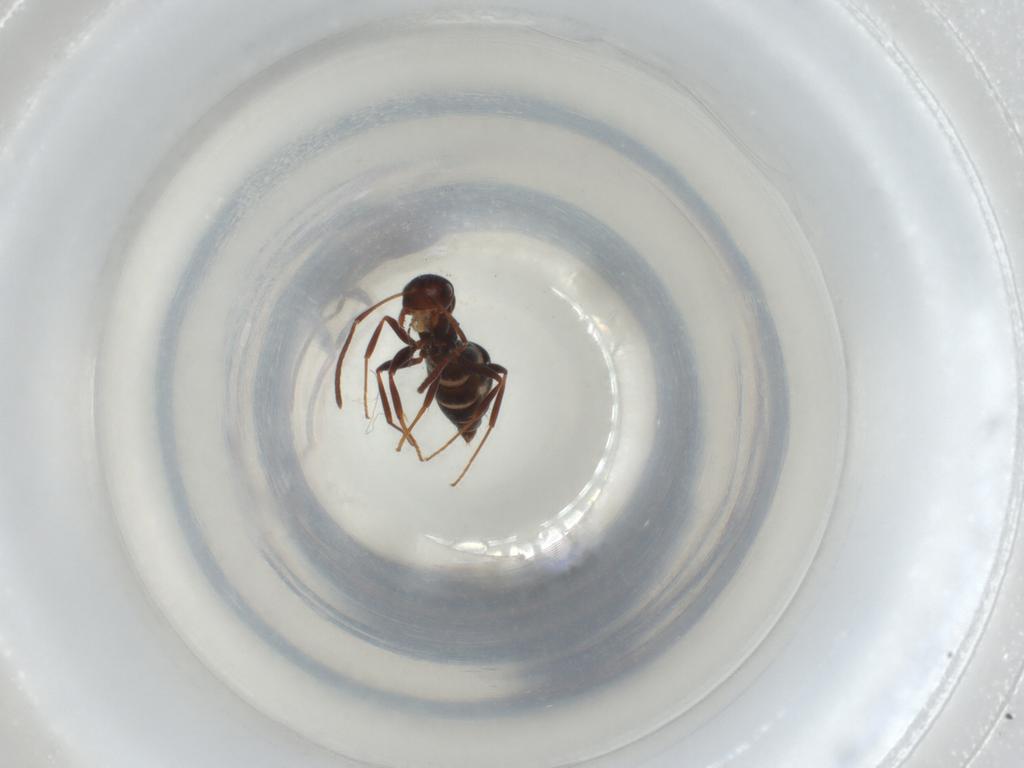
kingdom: Animalia
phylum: Arthropoda
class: Insecta
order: Hymenoptera
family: Formicidae
